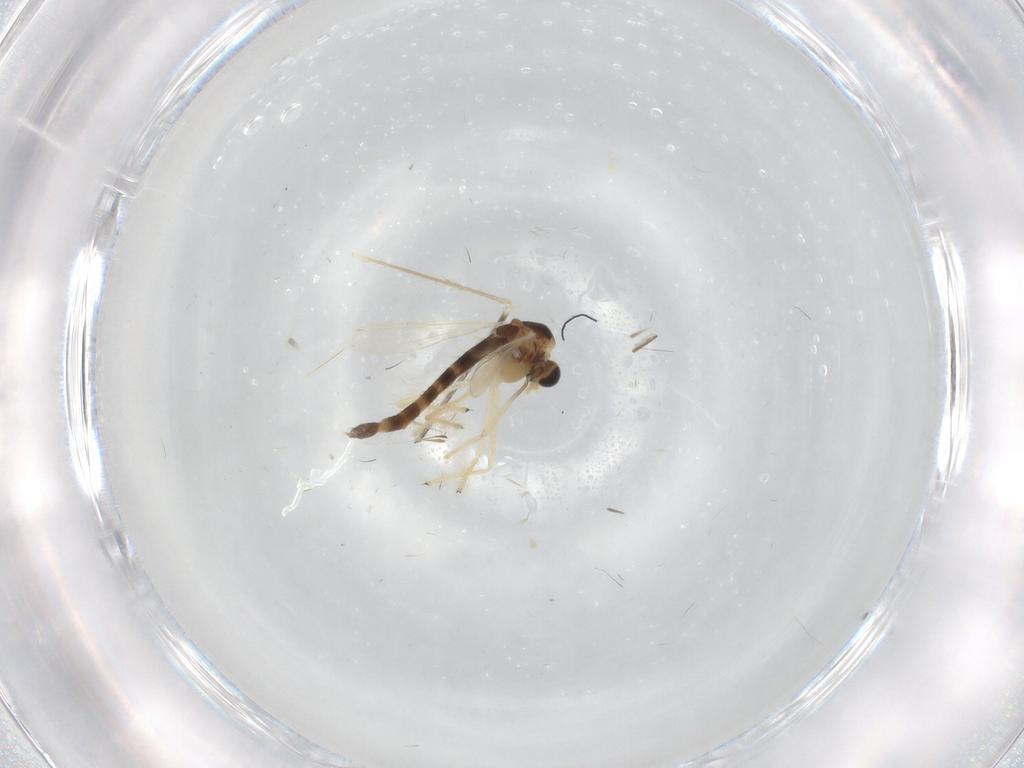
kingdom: Animalia
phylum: Arthropoda
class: Insecta
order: Diptera
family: Chironomidae
